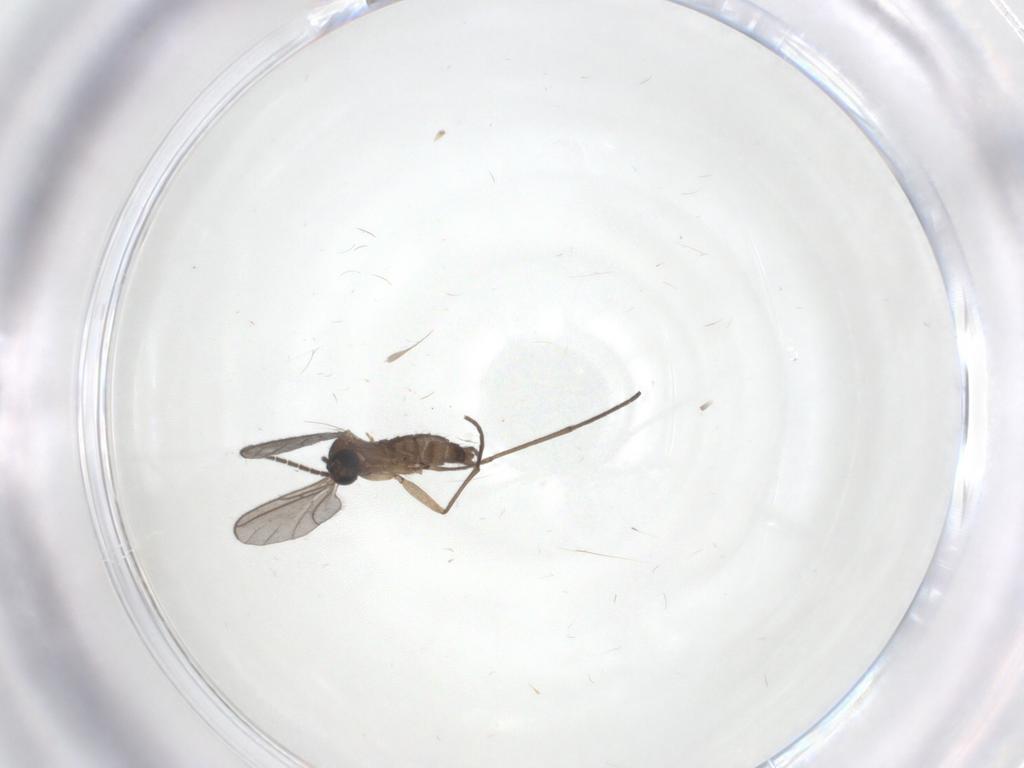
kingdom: Animalia
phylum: Arthropoda
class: Insecta
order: Diptera
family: Sciaridae
